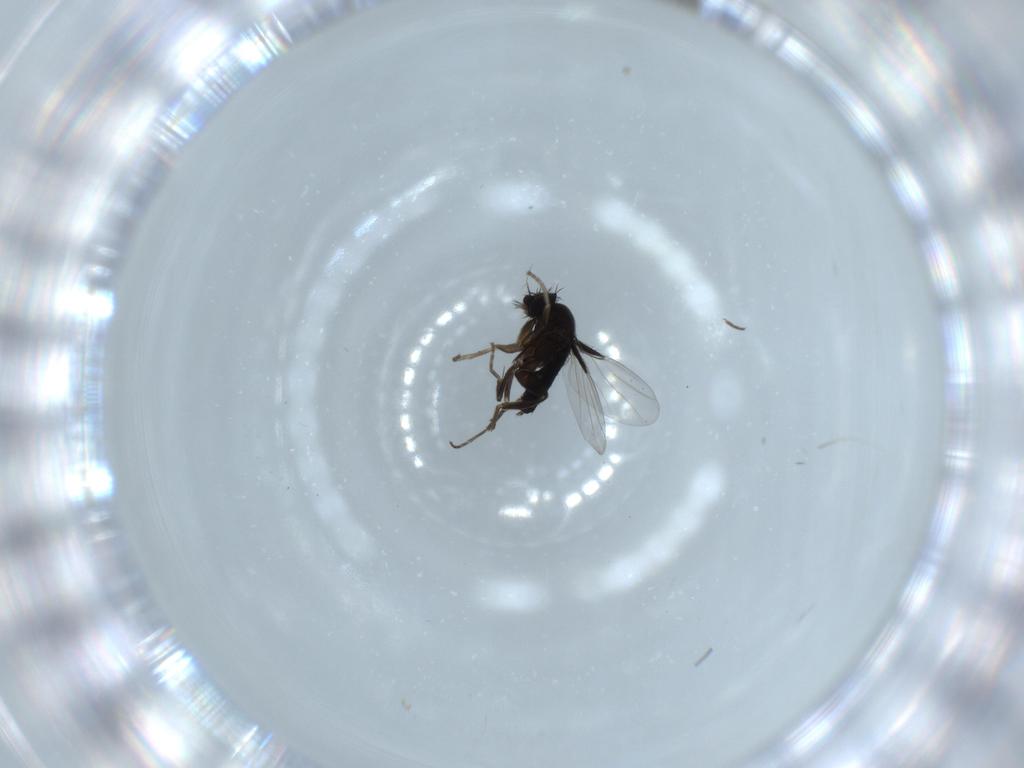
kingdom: Animalia
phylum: Arthropoda
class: Insecta
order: Diptera
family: Phoridae
